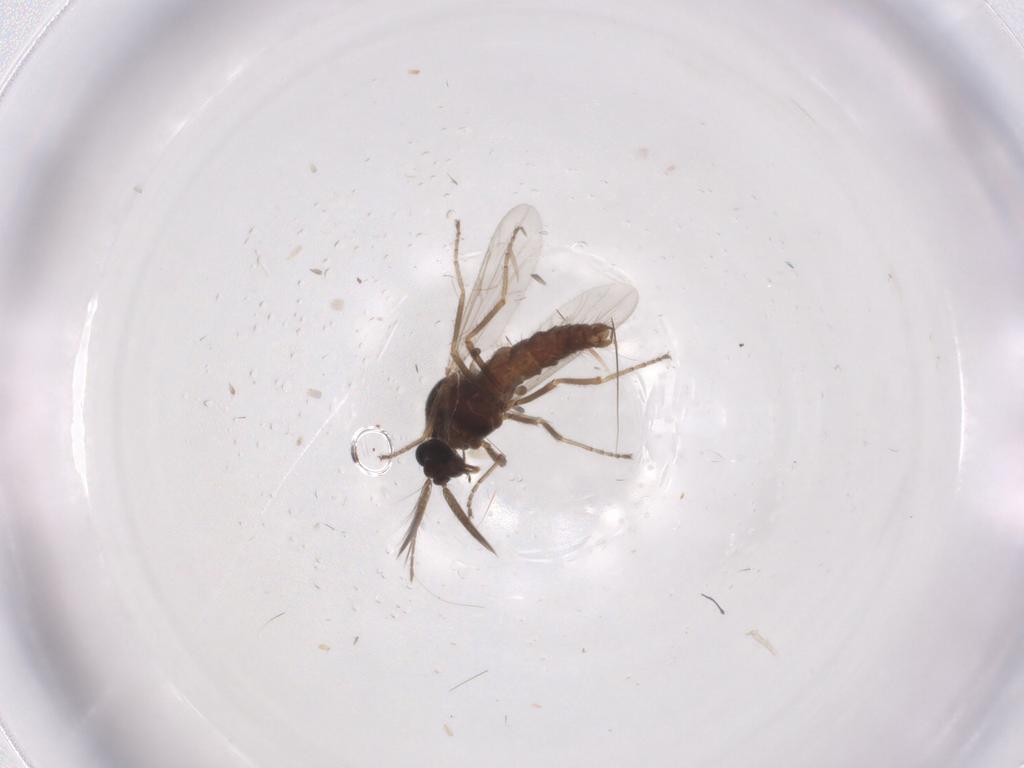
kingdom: Animalia
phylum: Arthropoda
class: Insecta
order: Diptera
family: Ceratopogonidae
